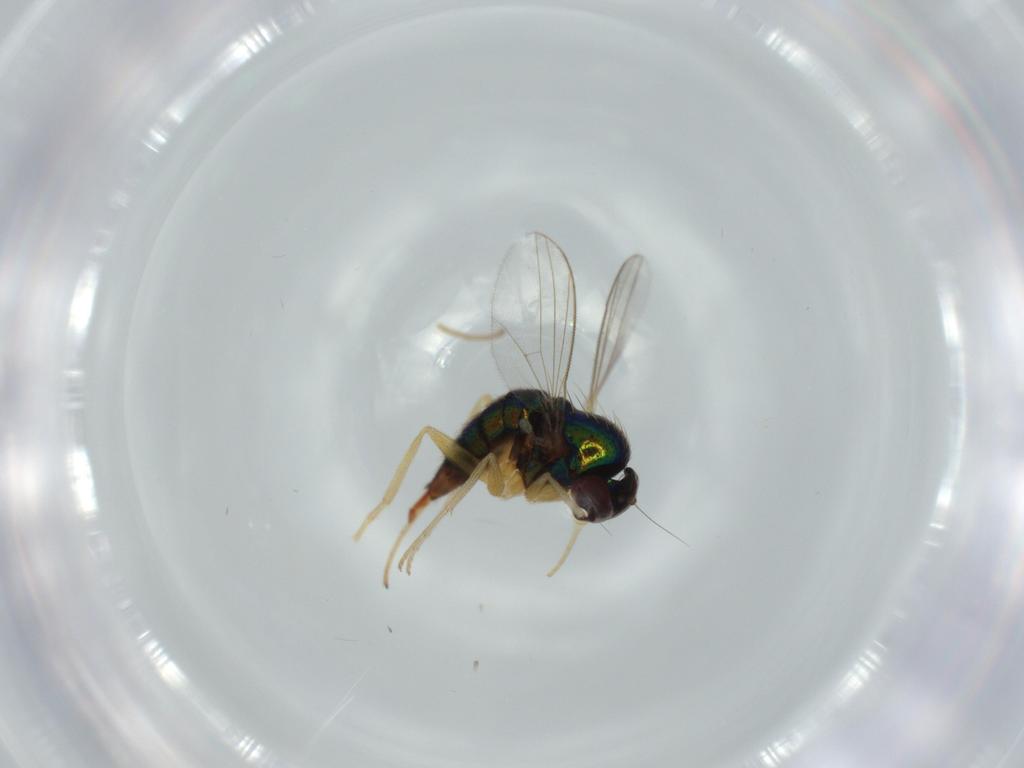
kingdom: Animalia
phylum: Arthropoda
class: Insecta
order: Diptera
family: Dolichopodidae
